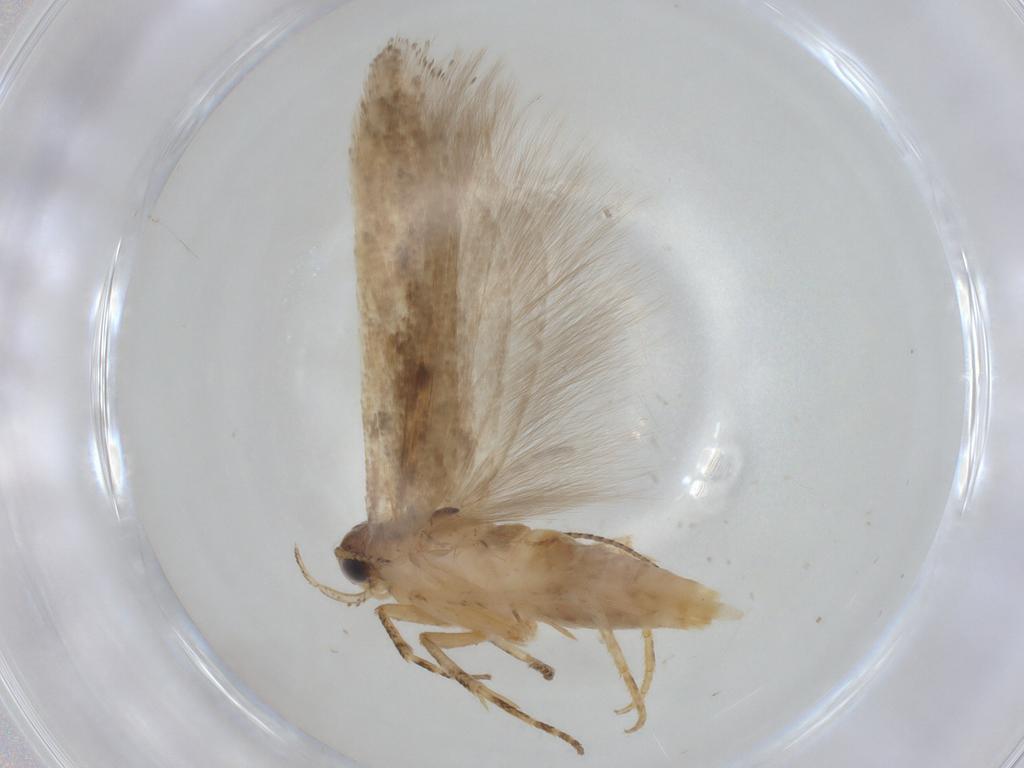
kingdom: Animalia
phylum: Arthropoda
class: Insecta
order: Lepidoptera
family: Gelechiidae
